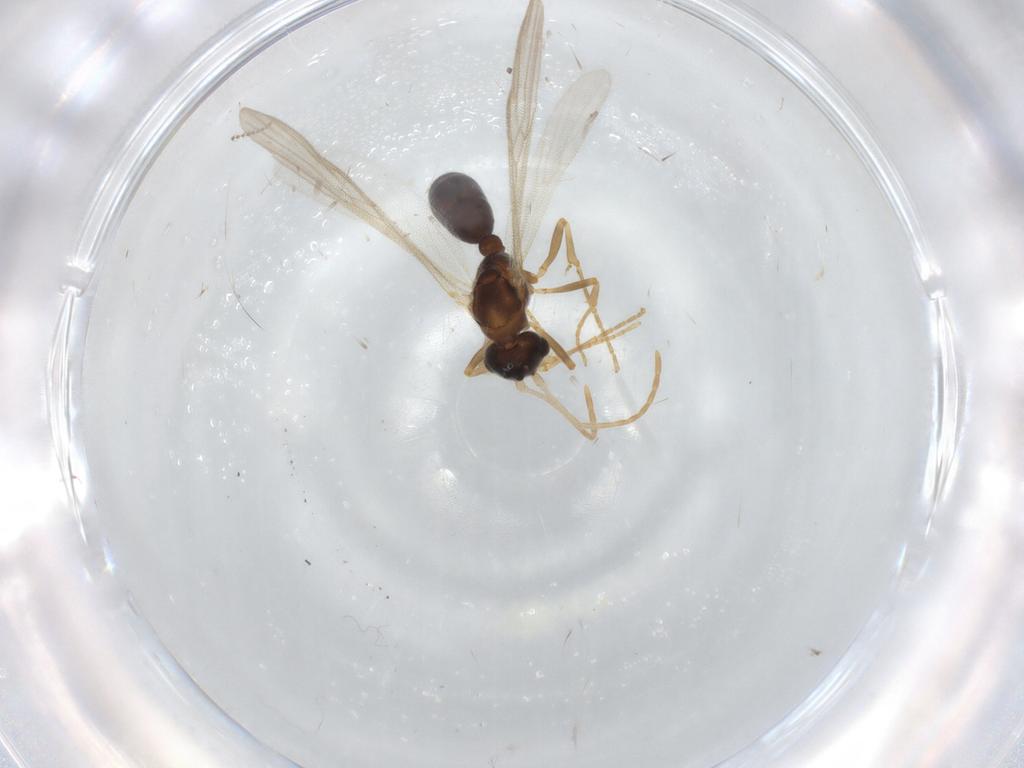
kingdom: Animalia
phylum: Arthropoda
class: Insecta
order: Hymenoptera
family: Formicidae
